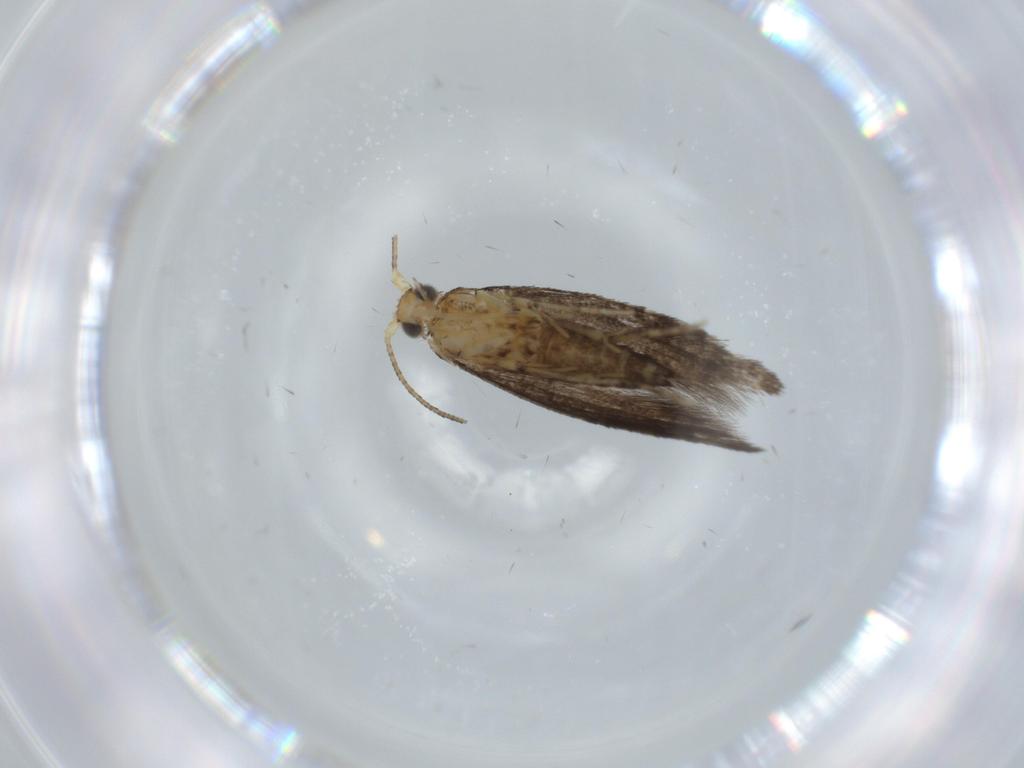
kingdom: Animalia
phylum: Arthropoda
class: Insecta
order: Lepidoptera
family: Argyresthiidae
